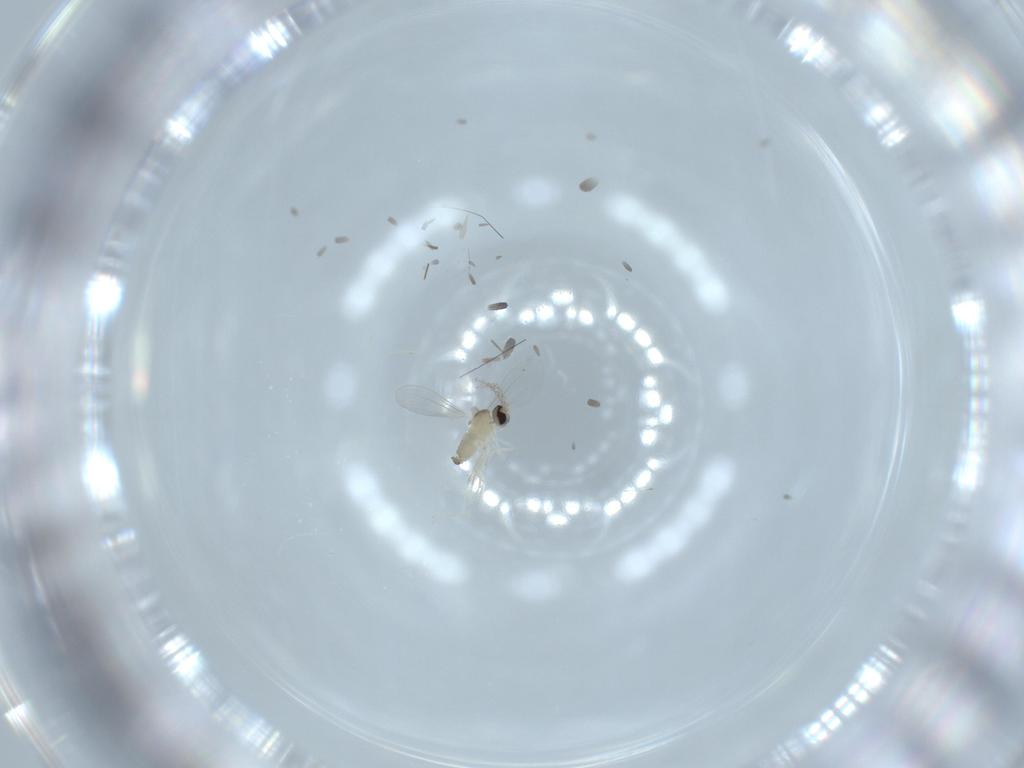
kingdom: Animalia
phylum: Arthropoda
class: Insecta
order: Diptera
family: Cecidomyiidae
